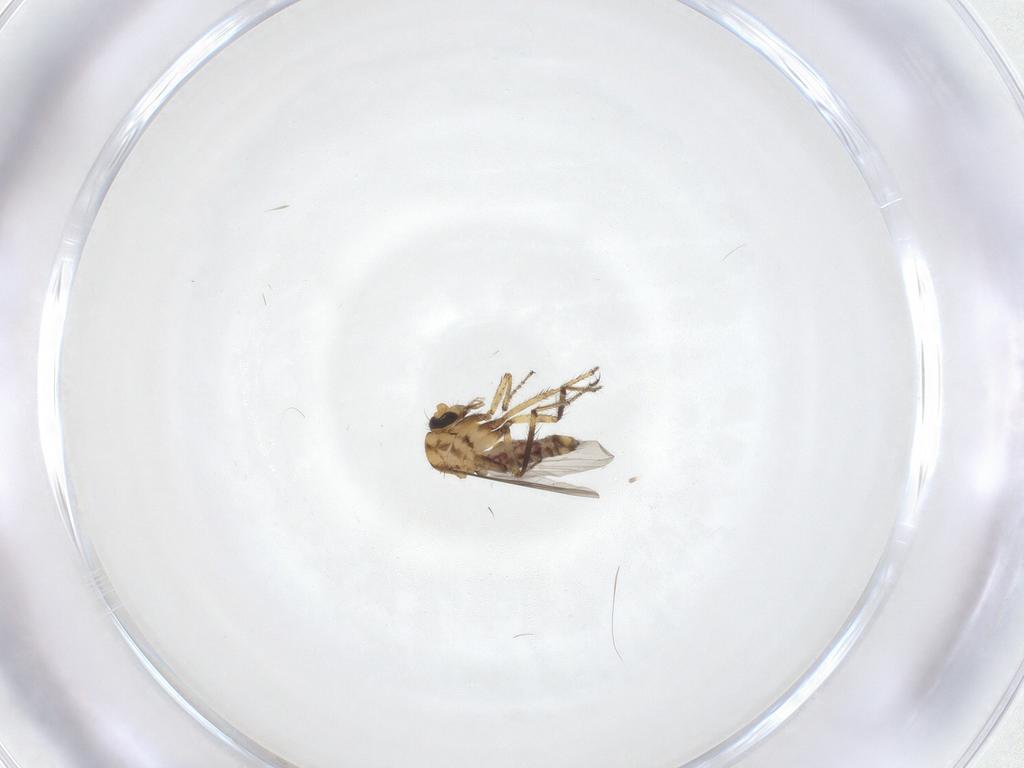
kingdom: Animalia
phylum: Arthropoda
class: Insecta
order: Diptera
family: Ceratopogonidae
